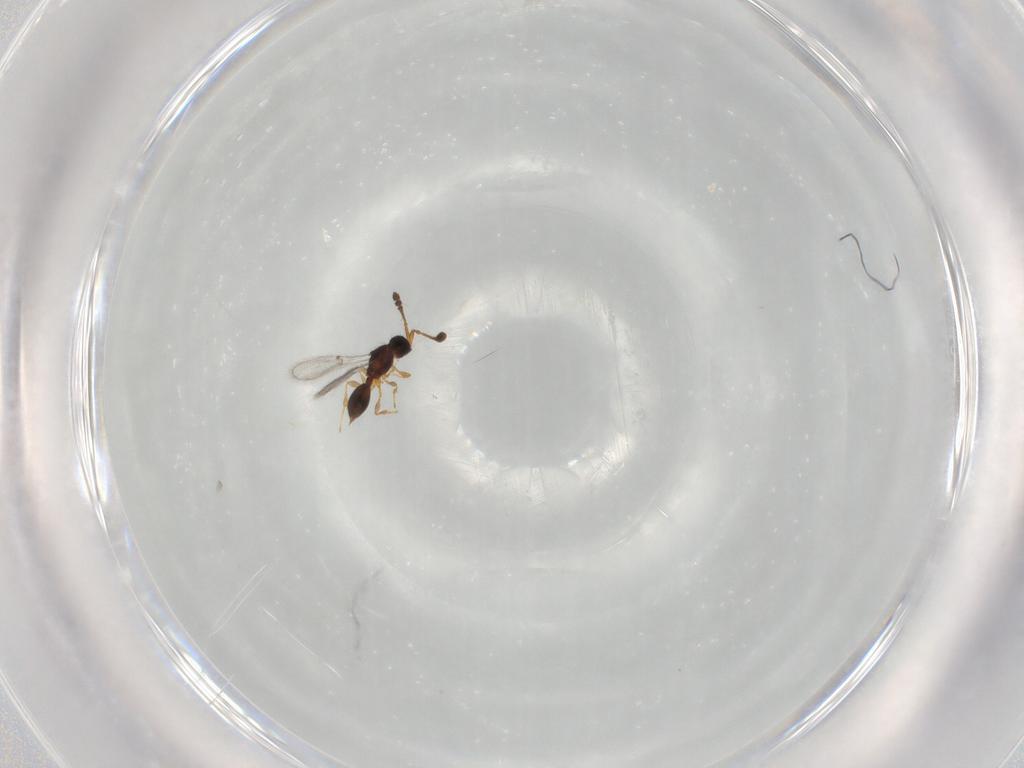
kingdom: Animalia
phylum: Arthropoda
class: Insecta
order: Hymenoptera
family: Diapriidae
